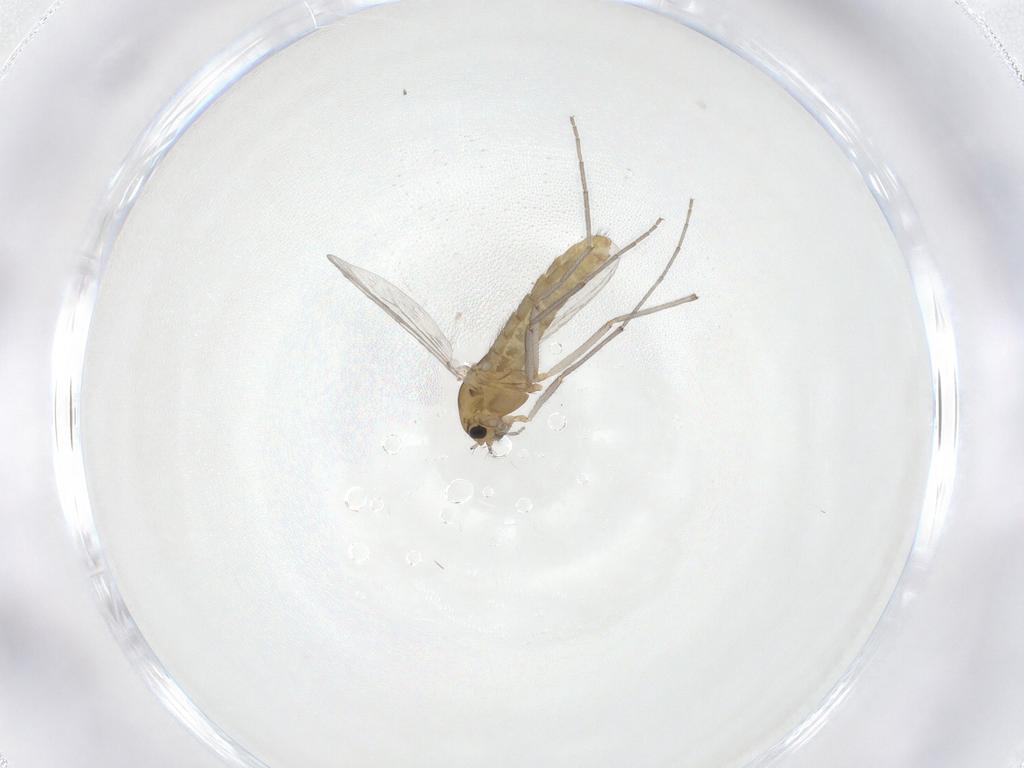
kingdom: Animalia
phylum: Arthropoda
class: Insecta
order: Diptera
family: Chironomidae
